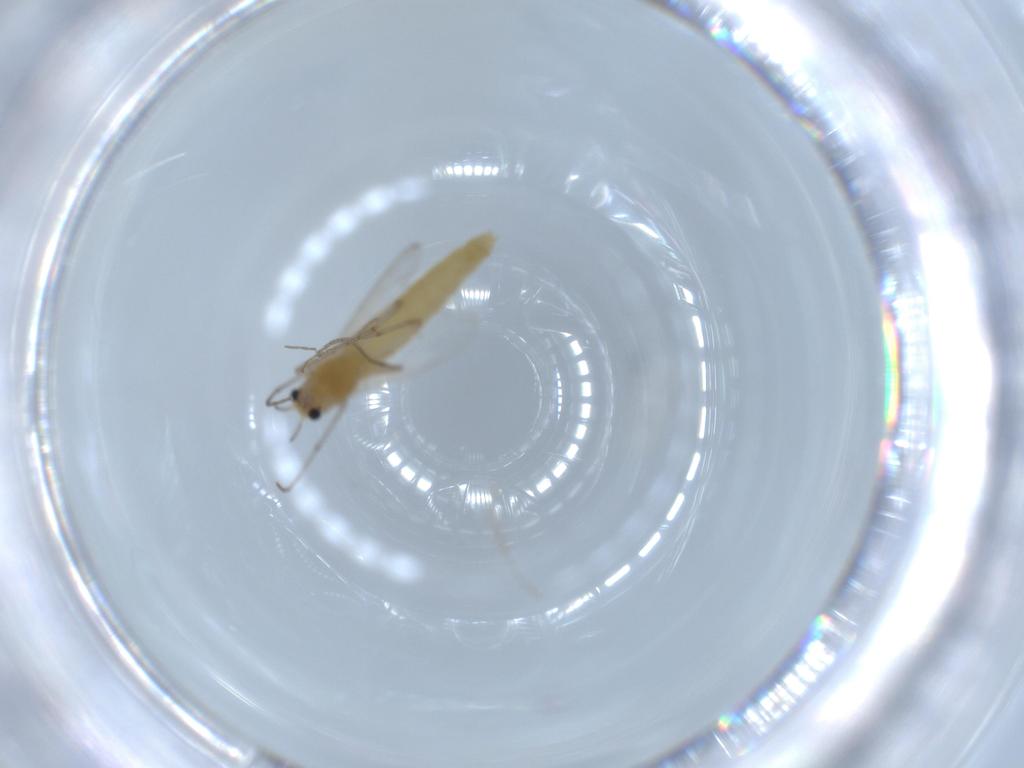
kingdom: Animalia
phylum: Arthropoda
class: Insecta
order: Diptera
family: Chironomidae
